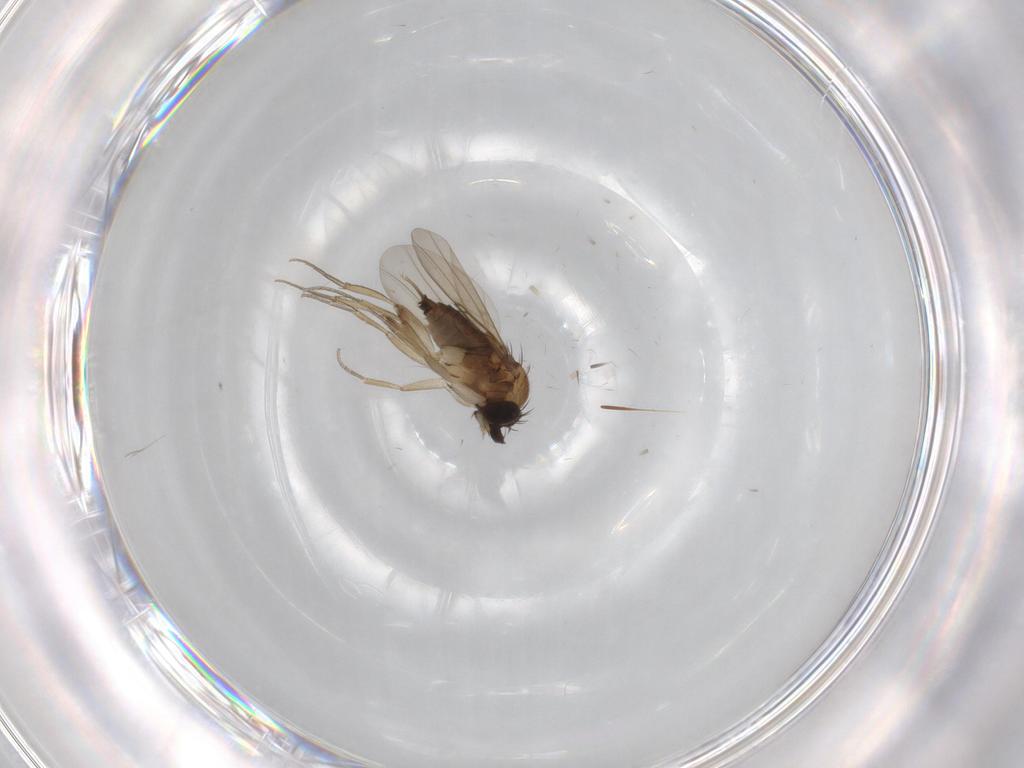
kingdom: Animalia
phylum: Arthropoda
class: Insecta
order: Diptera
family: Phoridae
